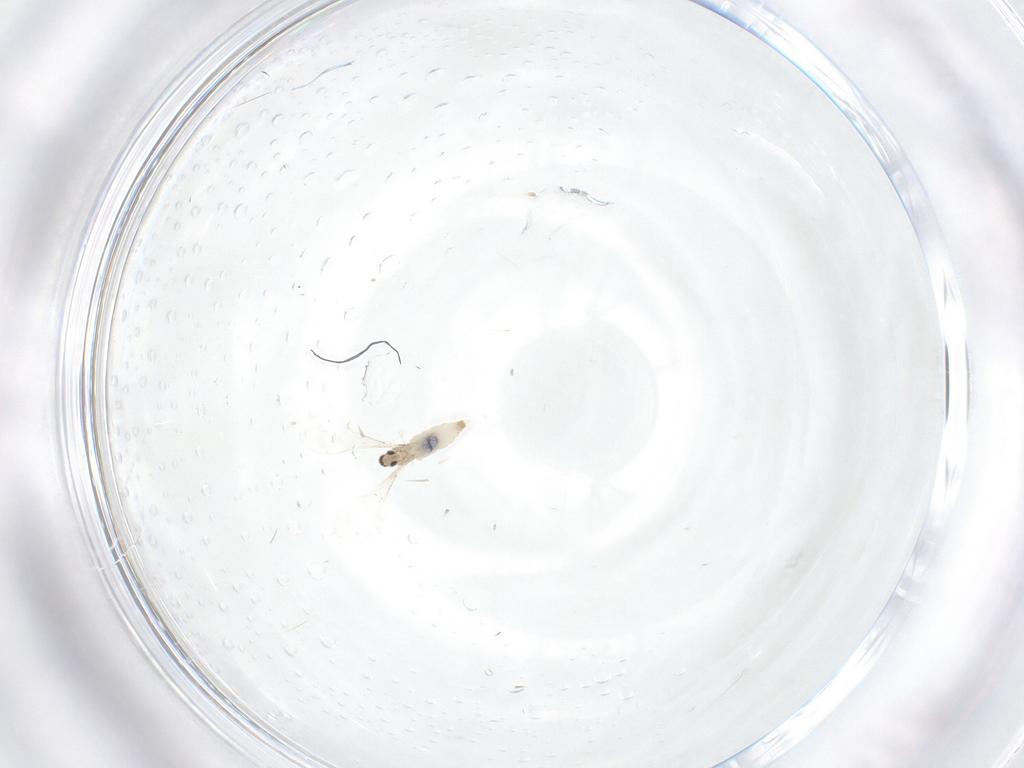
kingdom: Animalia
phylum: Arthropoda
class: Insecta
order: Diptera
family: Cecidomyiidae
